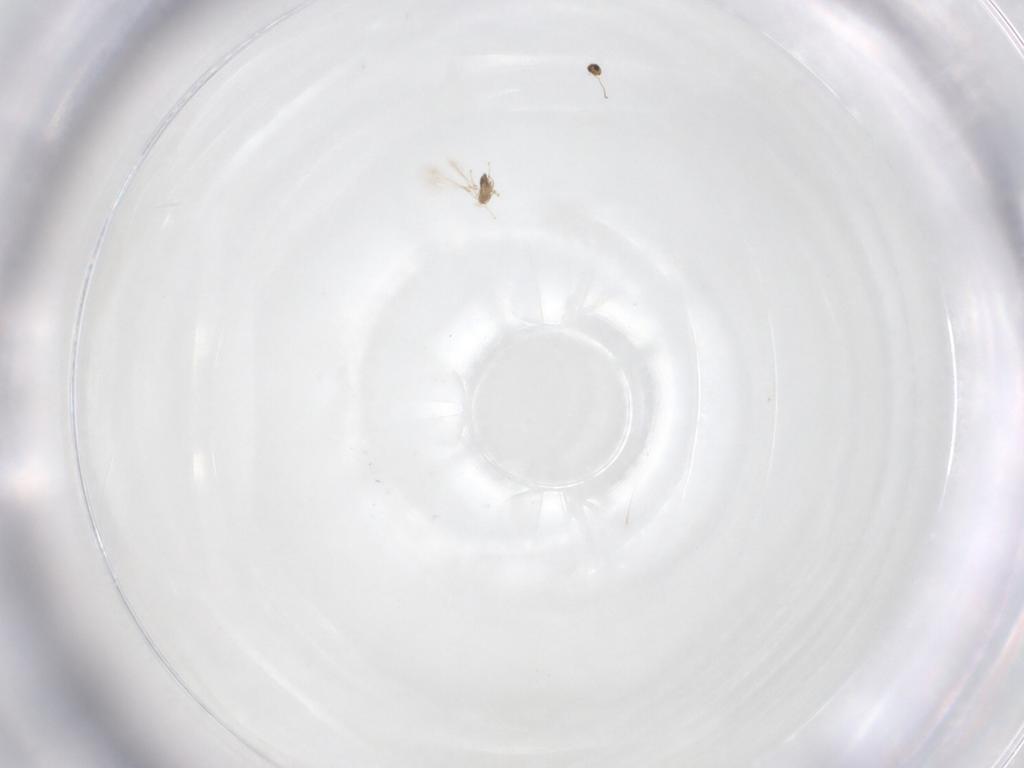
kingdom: Animalia
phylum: Arthropoda
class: Insecta
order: Hymenoptera
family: Mymaridae
